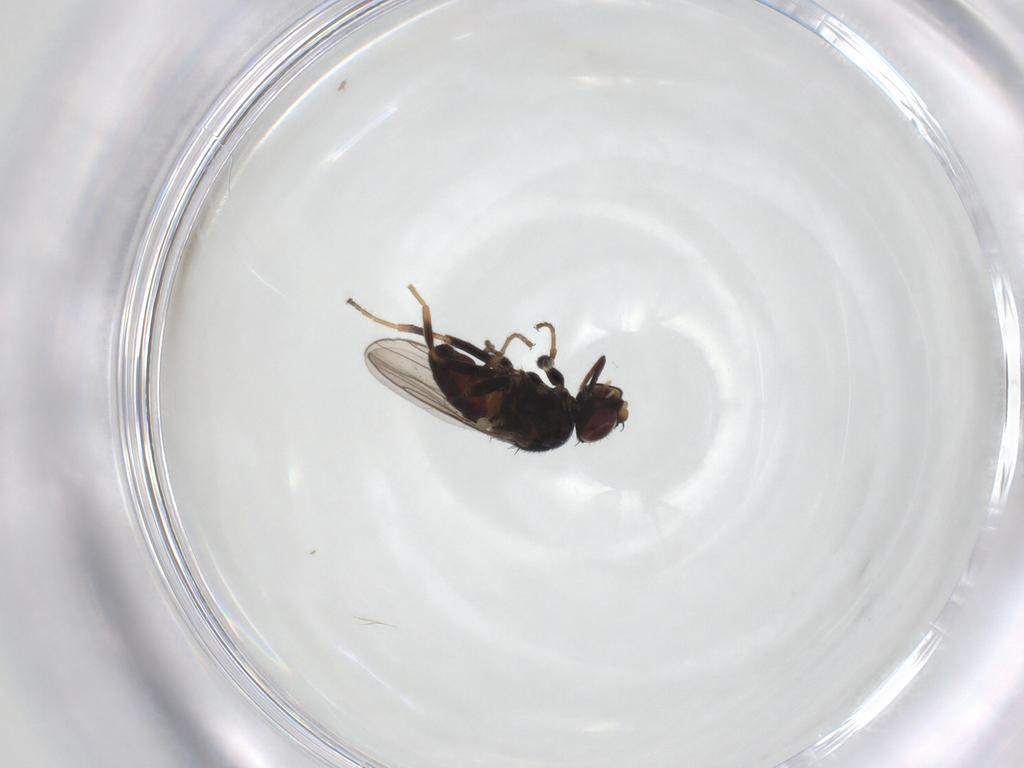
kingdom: Animalia
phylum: Arthropoda
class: Insecta
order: Diptera
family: Chloropidae
